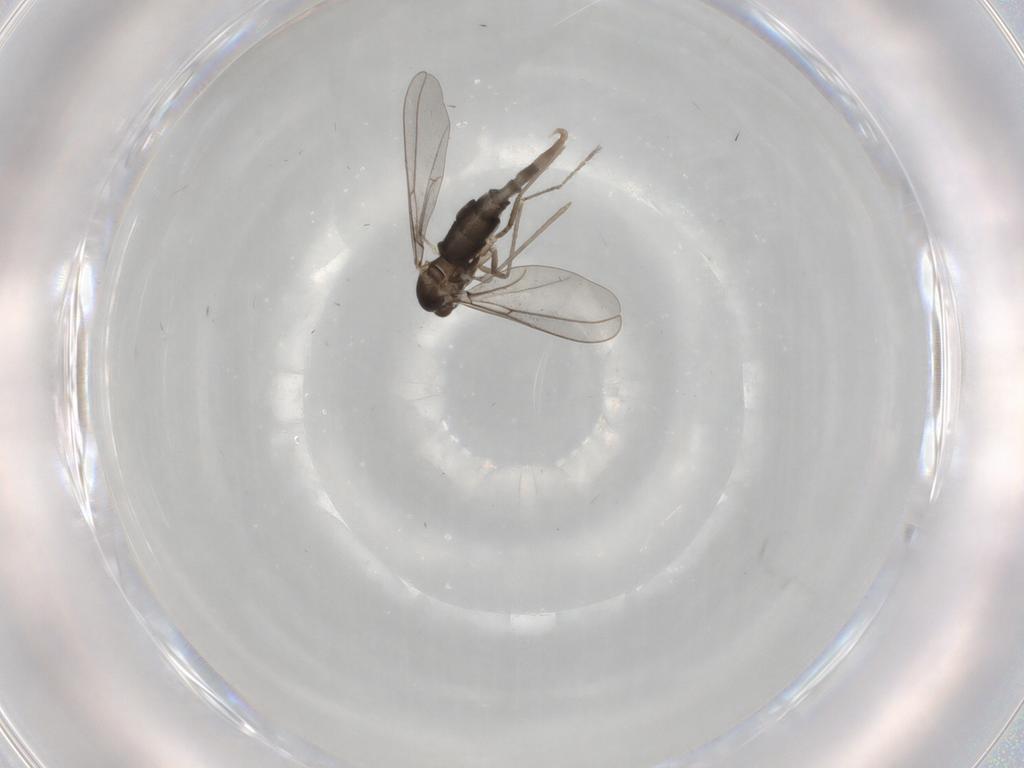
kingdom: Animalia
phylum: Arthropoda
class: Insecta
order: Diptera
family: Cecidomyiidae
